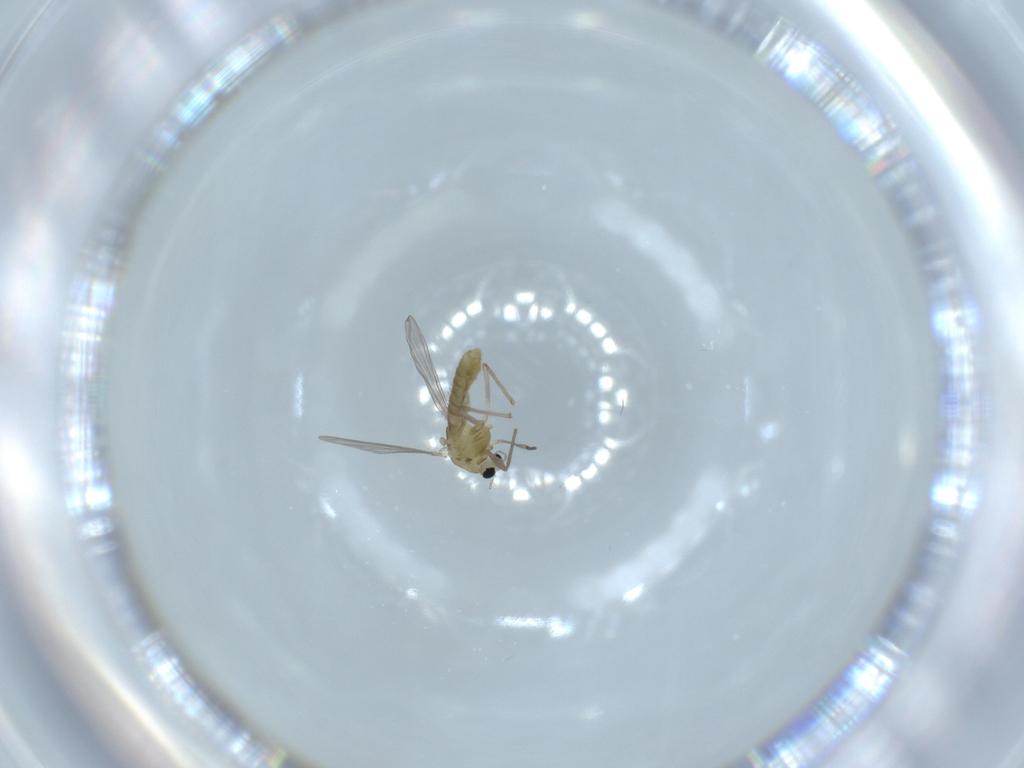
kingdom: Animalia
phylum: Arthropoda
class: Insecta
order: Diptera
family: Chironomidae
